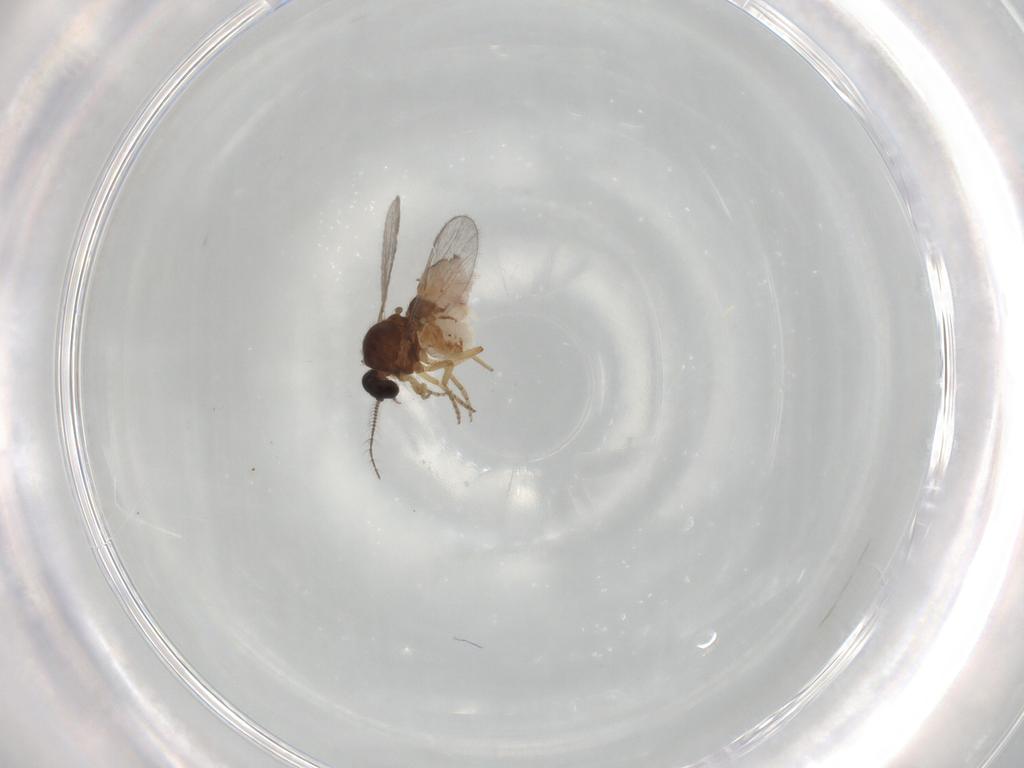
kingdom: Animalia
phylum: Arthropoda
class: Insecta
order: Diptera
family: Ceratopogonidae
